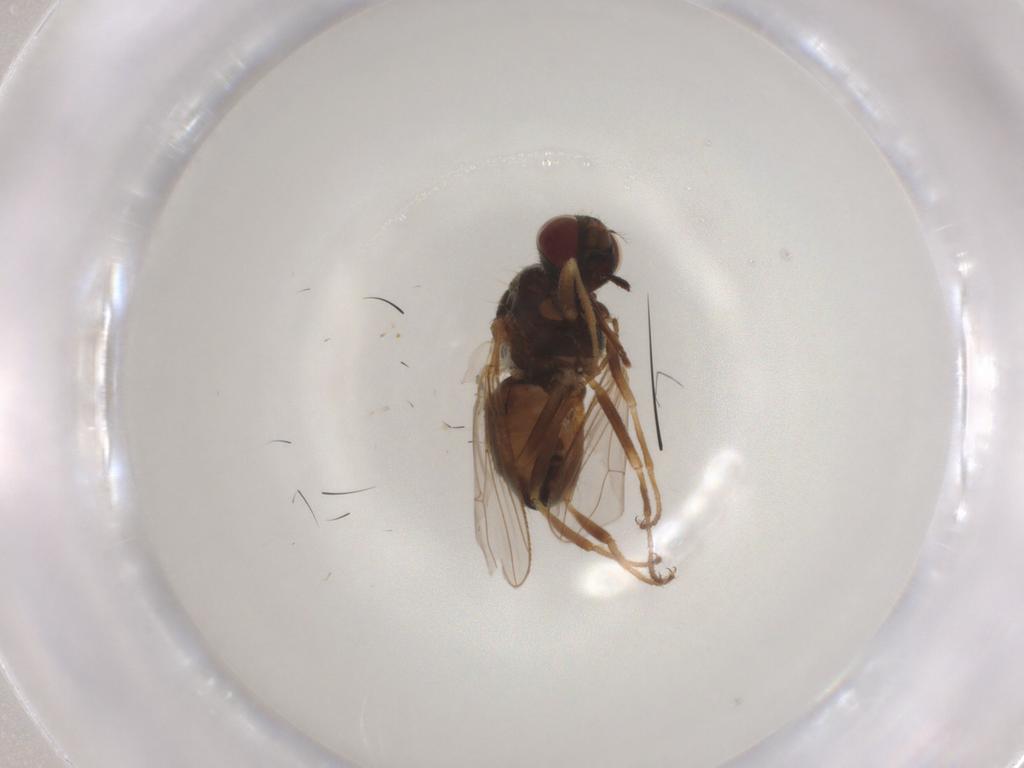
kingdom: Animalia
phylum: Arthropoda
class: Insecta
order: Diptera
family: Muscidae
